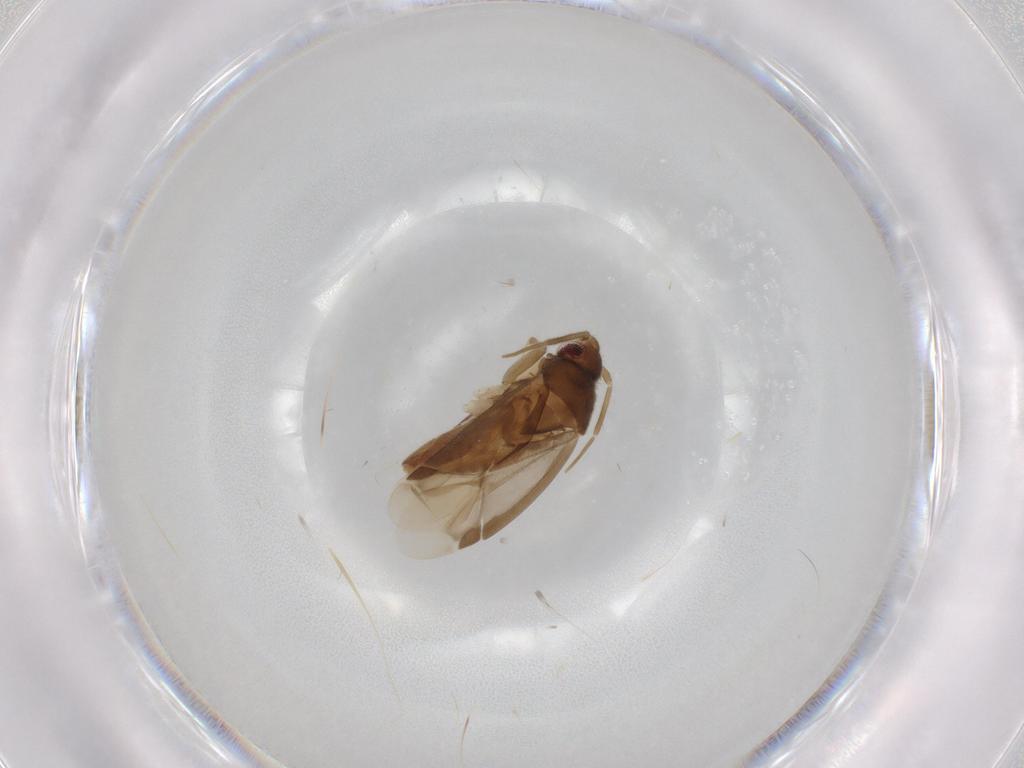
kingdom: Animalia
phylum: Arthropoda
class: Insecta
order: Hemiptera
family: Miridae
